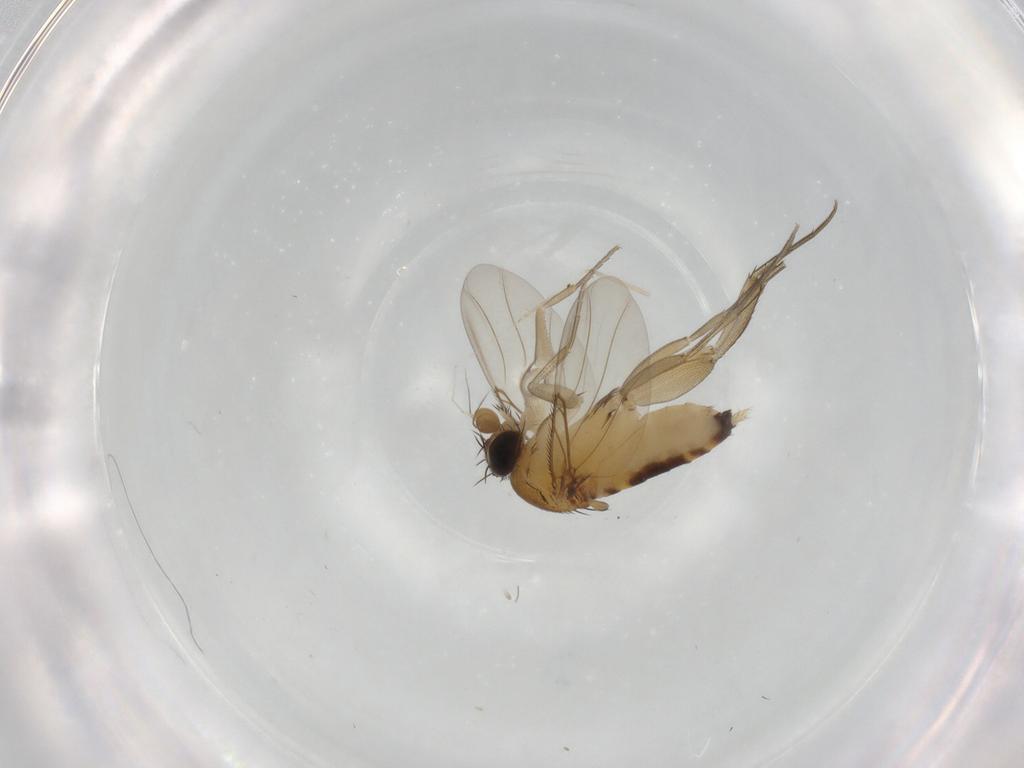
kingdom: Animalia
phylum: Arthropoda
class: Insecta
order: Diptera
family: Phoridae
